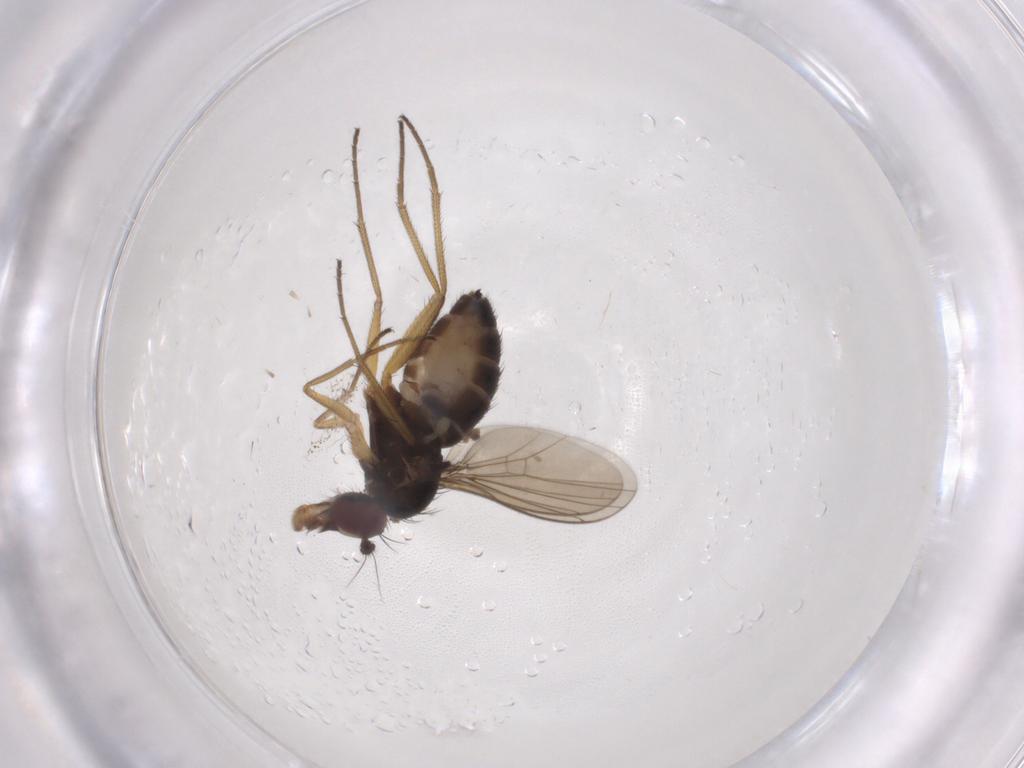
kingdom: Animalia
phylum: Arthropoda
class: Insecta
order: Diptera
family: Dolichopodidae
